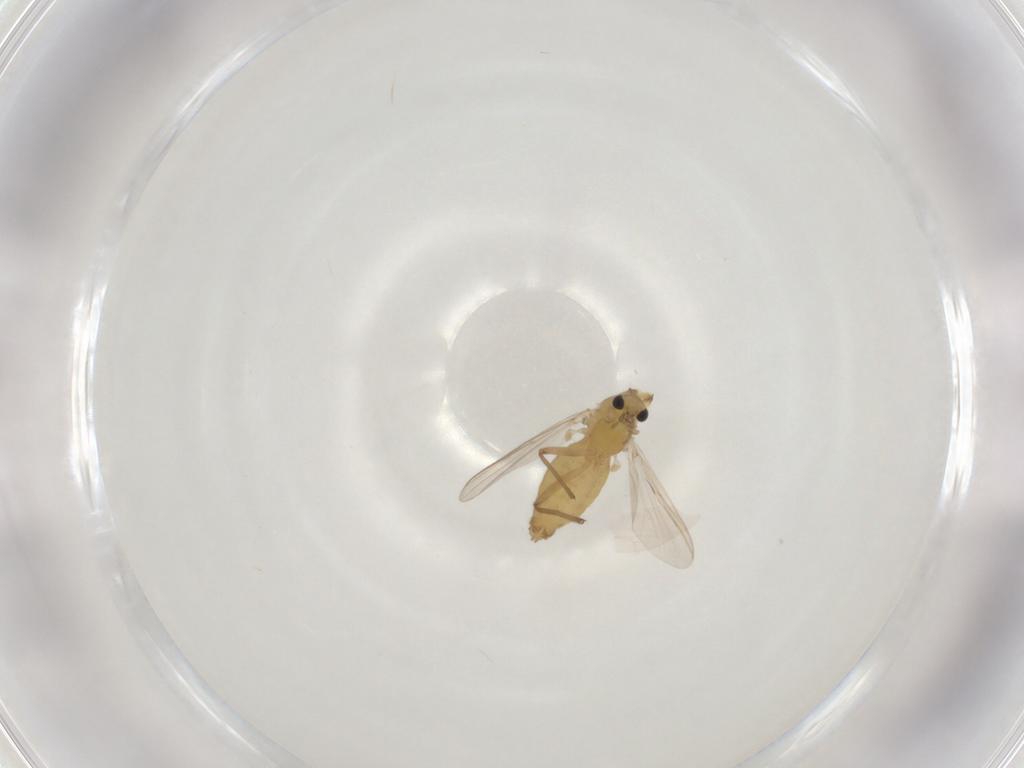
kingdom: Animalia
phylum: Arthropoda
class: Insecta
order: Diptera
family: Chironomidae
